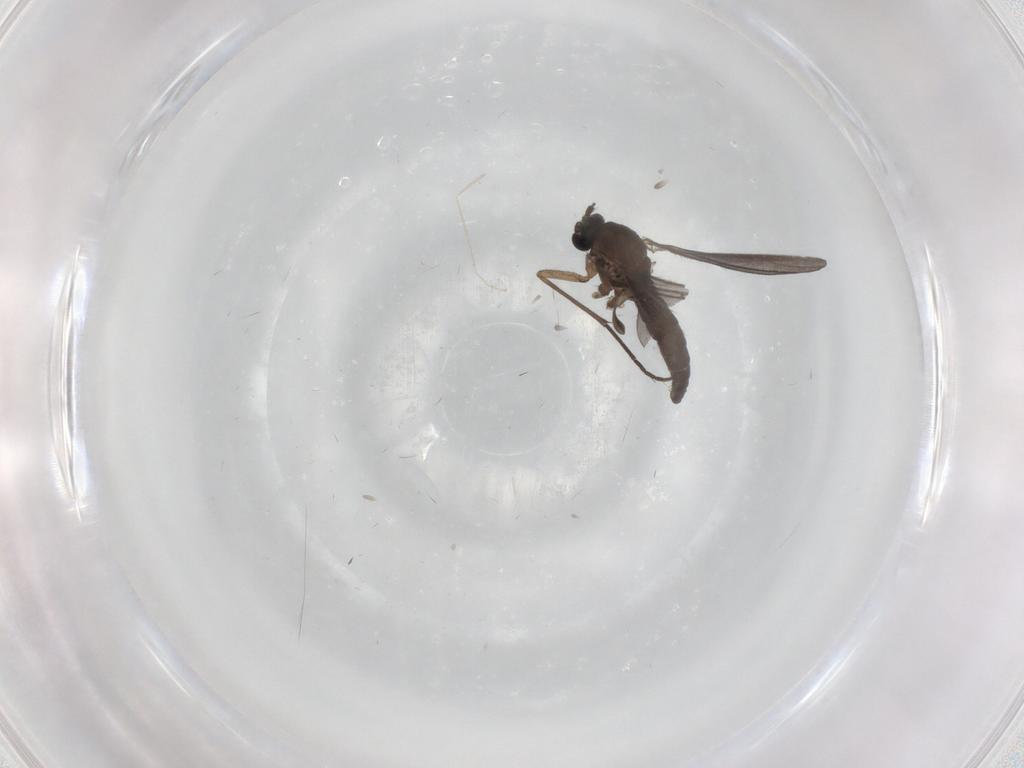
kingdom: Animalia
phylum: Arthropoda
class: Insecta
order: Diptera
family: Sciaridae
